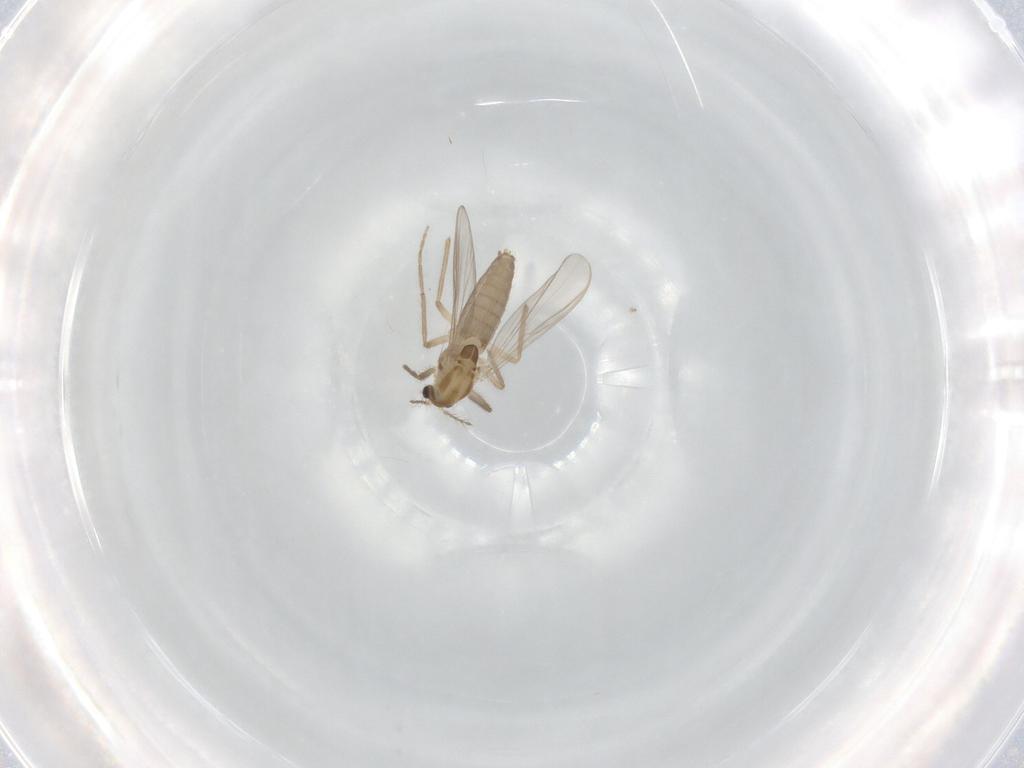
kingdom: Animalia
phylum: Arthropoda
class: Insecta
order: Diptera
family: Chironomidae
